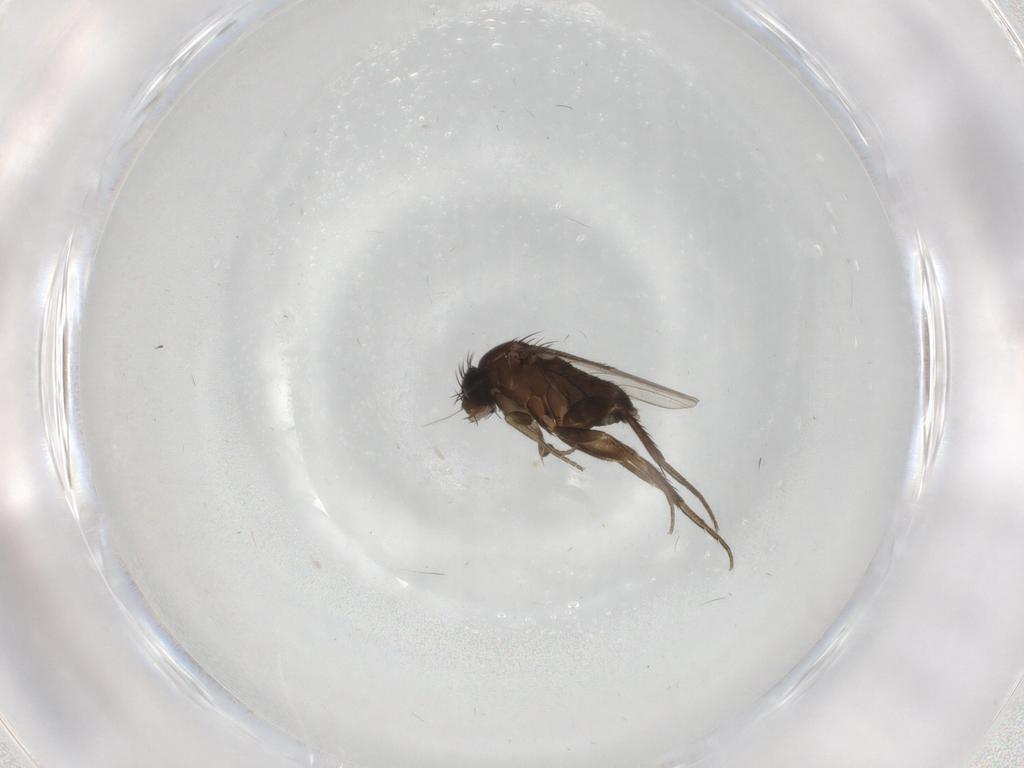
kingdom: Animalia
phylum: Arthropoda
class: Insecta
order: Diptera
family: Phoridae
